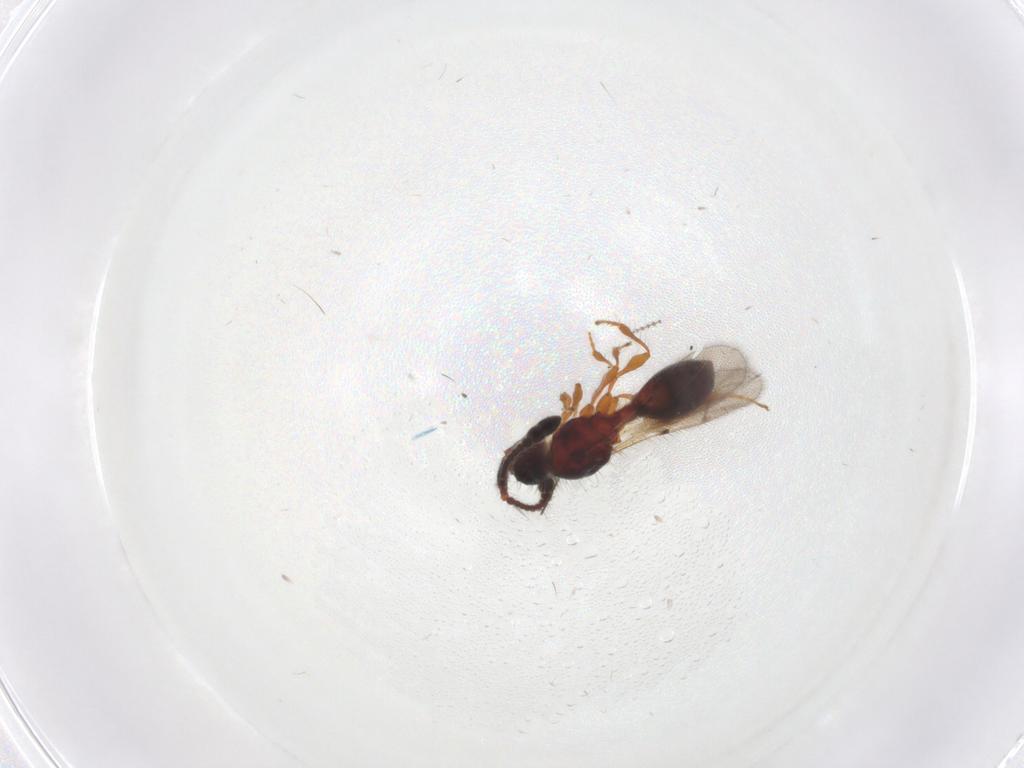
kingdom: Animalia
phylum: Arthropoda
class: Insecta
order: Hymenoptera
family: Diapriidae
